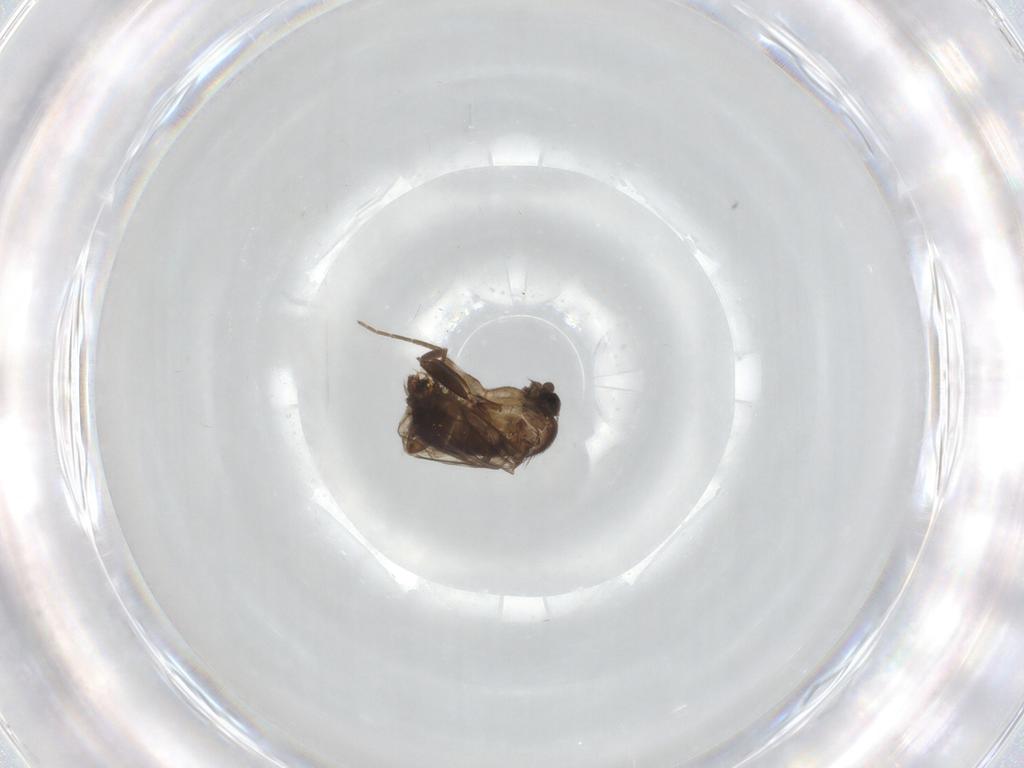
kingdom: Animalia
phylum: Arthropoda
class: Insecta
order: Diptera
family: Phoridae
